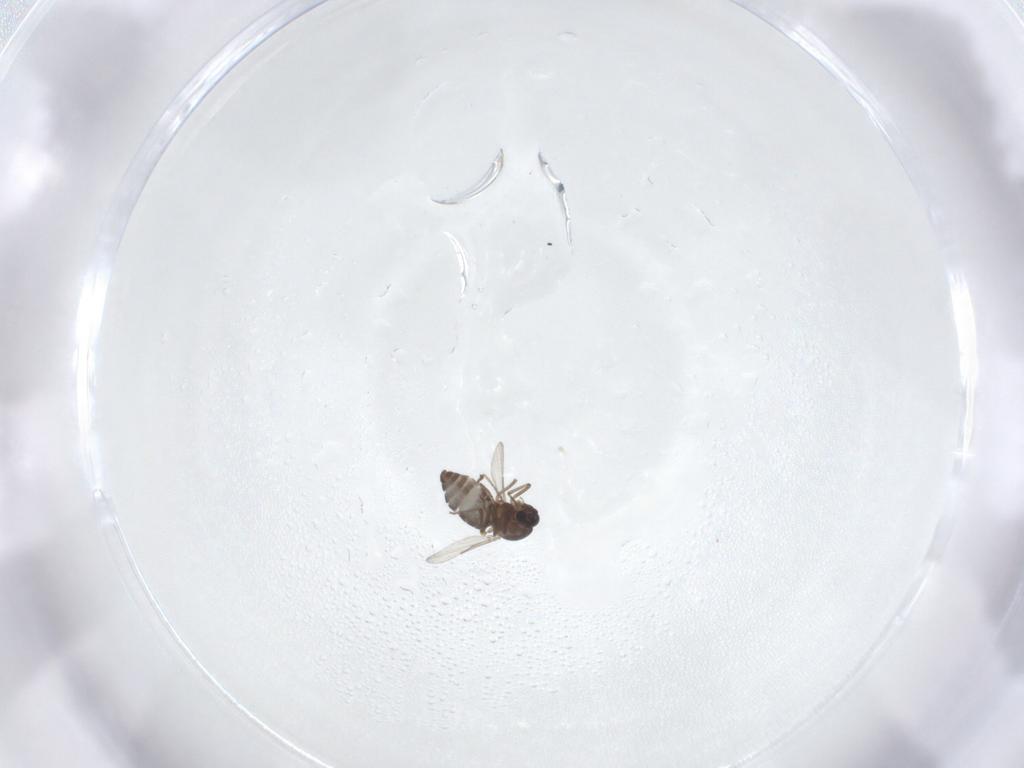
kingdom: Animalia
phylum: Arthropoda
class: Insecta
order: Diptera
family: Ceratopogonidae
